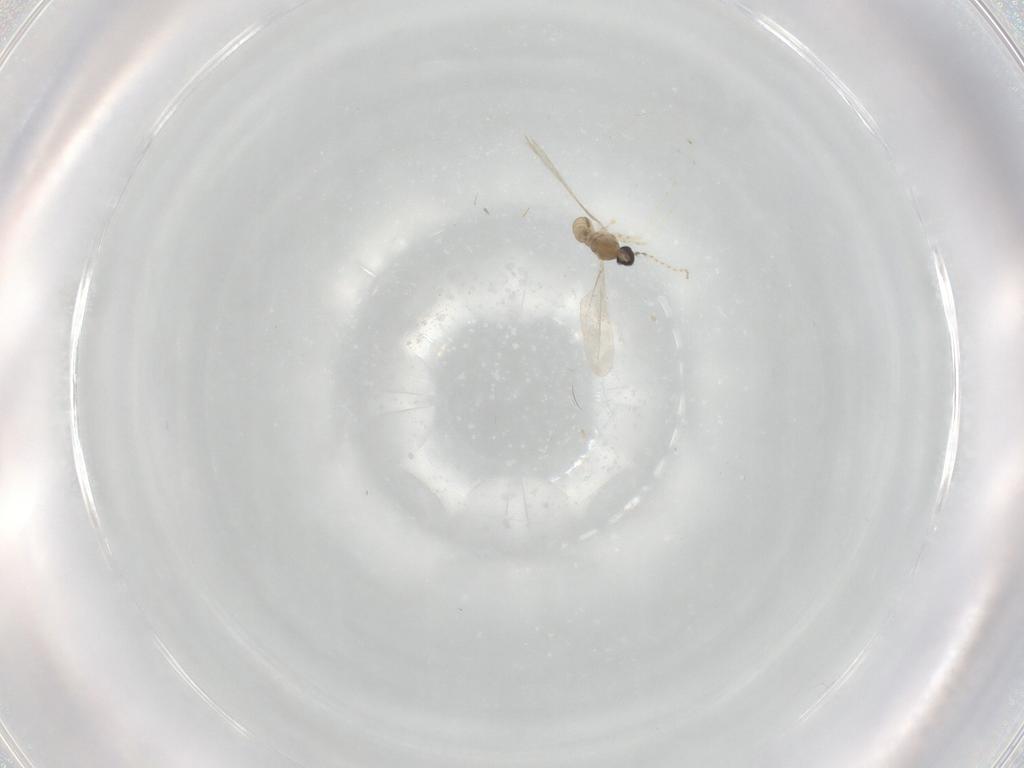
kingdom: Animalia
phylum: Arthropoda
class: Insecta
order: Diptera
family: Cecidomyiidae
